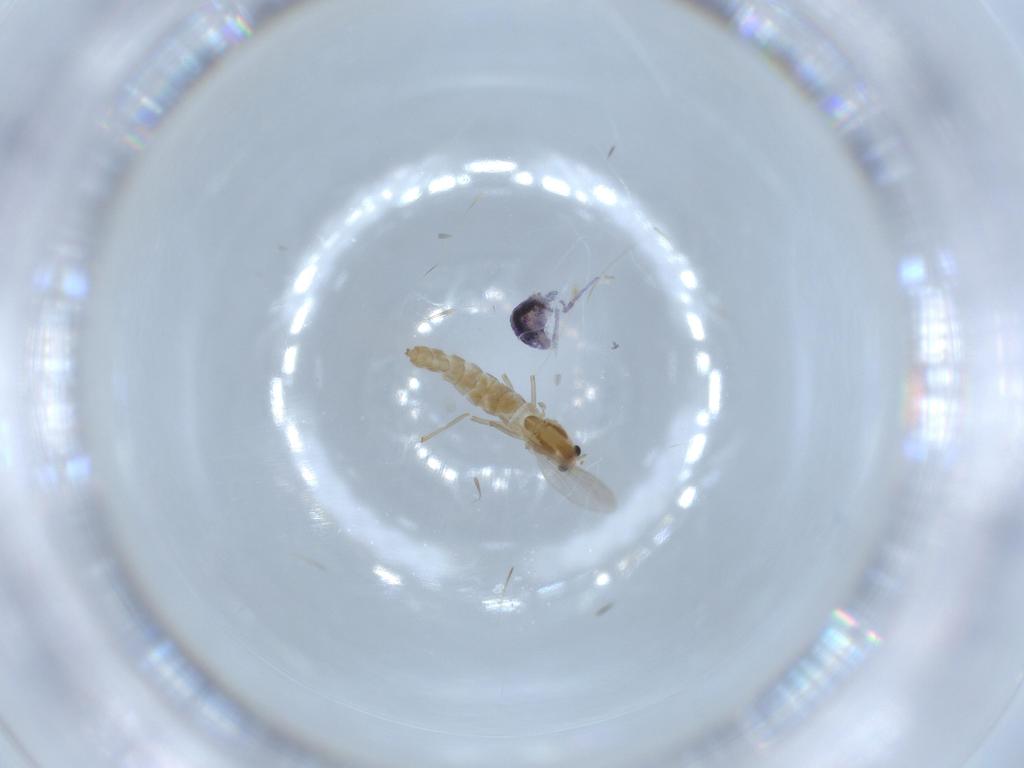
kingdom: Animalia
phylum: Arthropoda
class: Insecta
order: Diptera
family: Chironomidae
